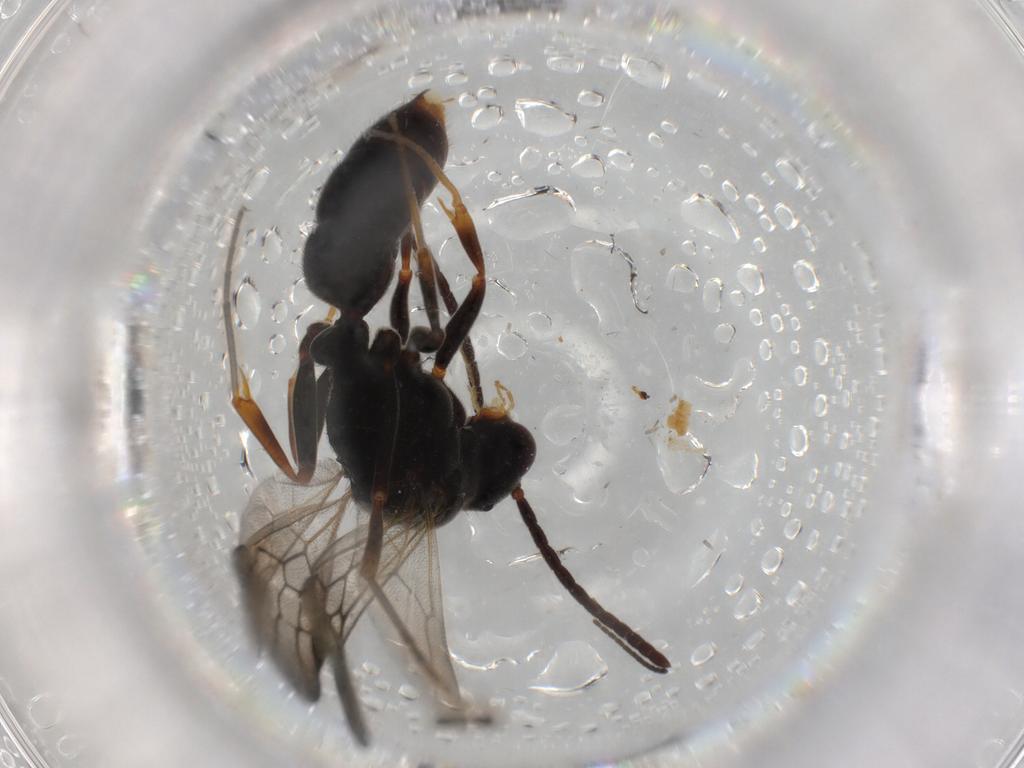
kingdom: Animalia
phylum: Arthropoda
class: Insecta
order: Hymenoptera
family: Formicidae
